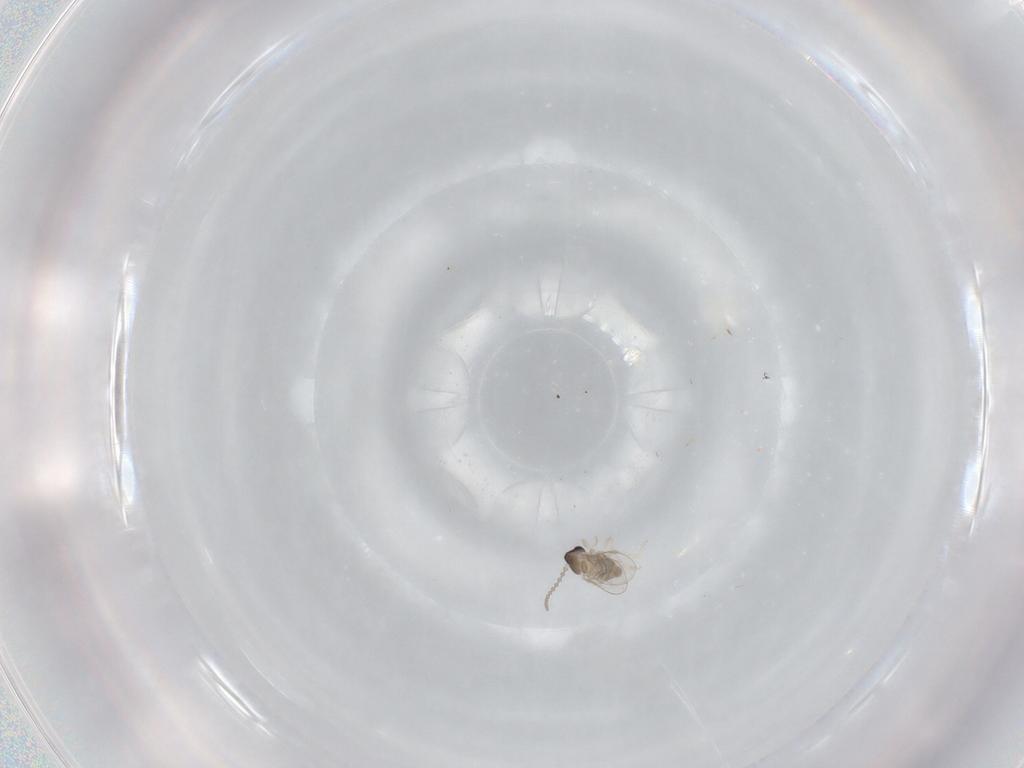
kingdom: Animalia
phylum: Arthropoda
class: Insecta
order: Diptera
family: Cecidomyiidae
